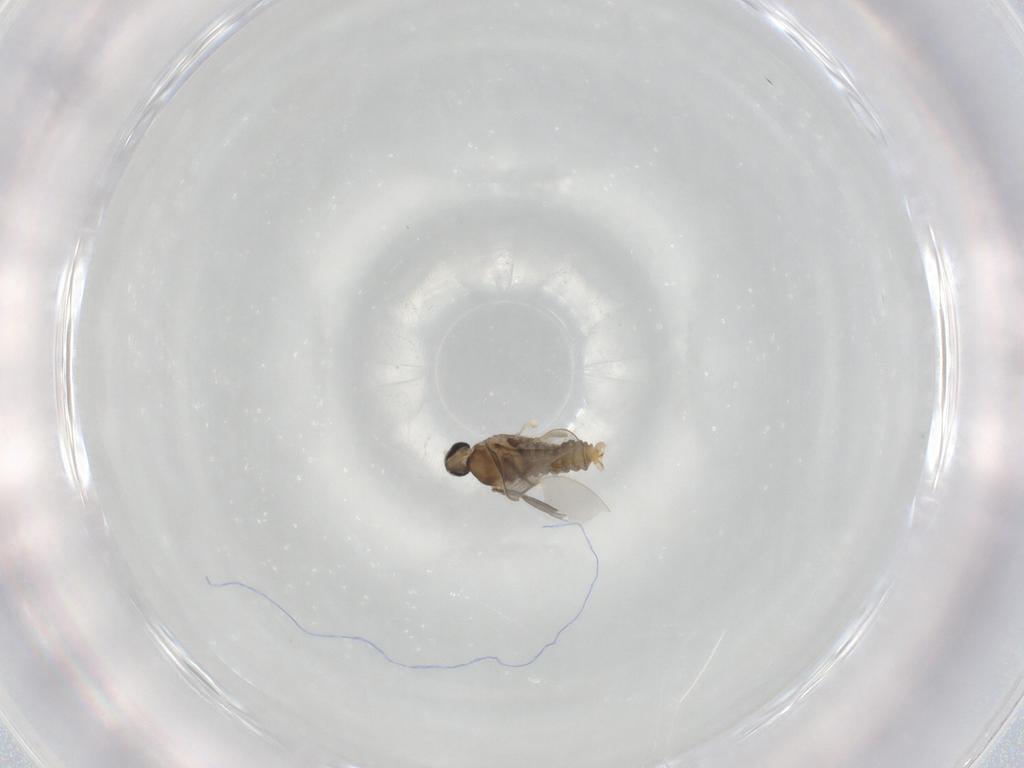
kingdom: Animalia
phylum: Arthropoda
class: Insecta
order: Diptera
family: Cecidomyiidae
